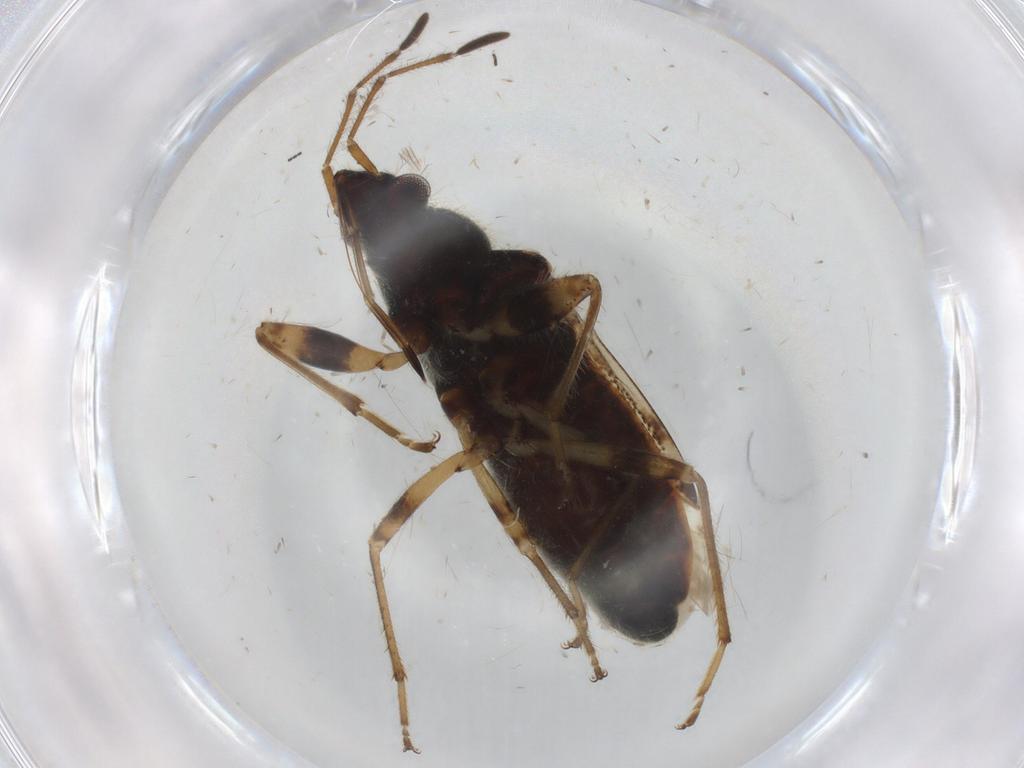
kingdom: Animalia
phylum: Arthropoda
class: Insecta
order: Hemiptera
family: Rhyparochromidae
